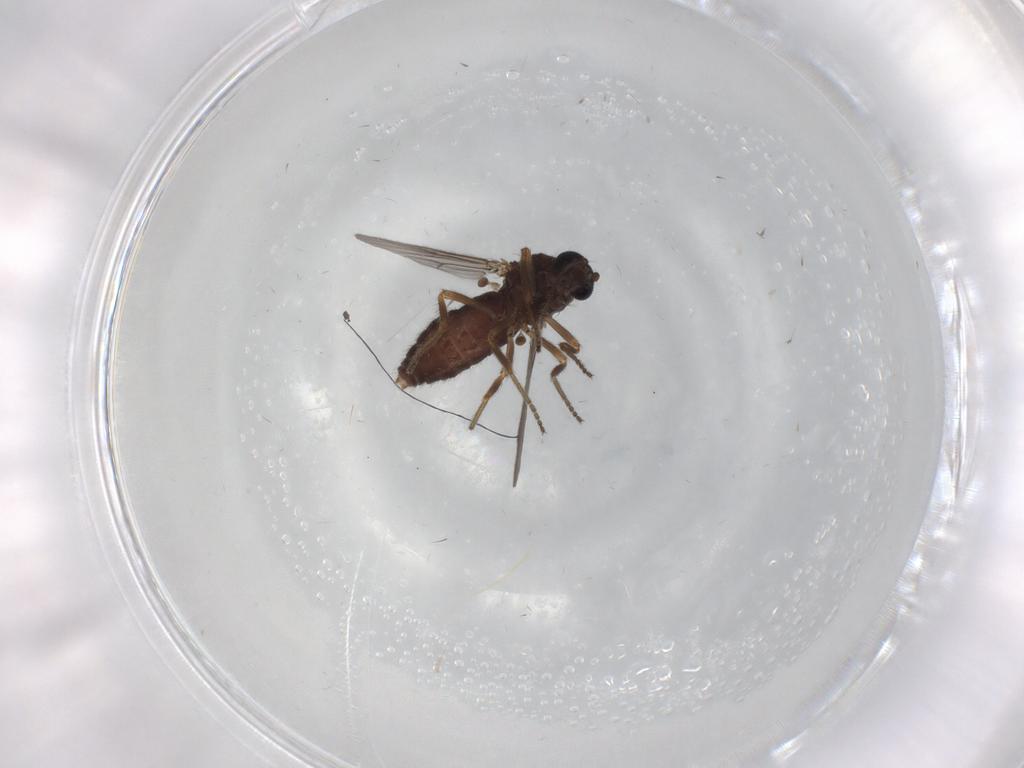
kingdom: Animalia
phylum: Arthropoda
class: Insecta
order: Diptera
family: Ceratopogonidae
